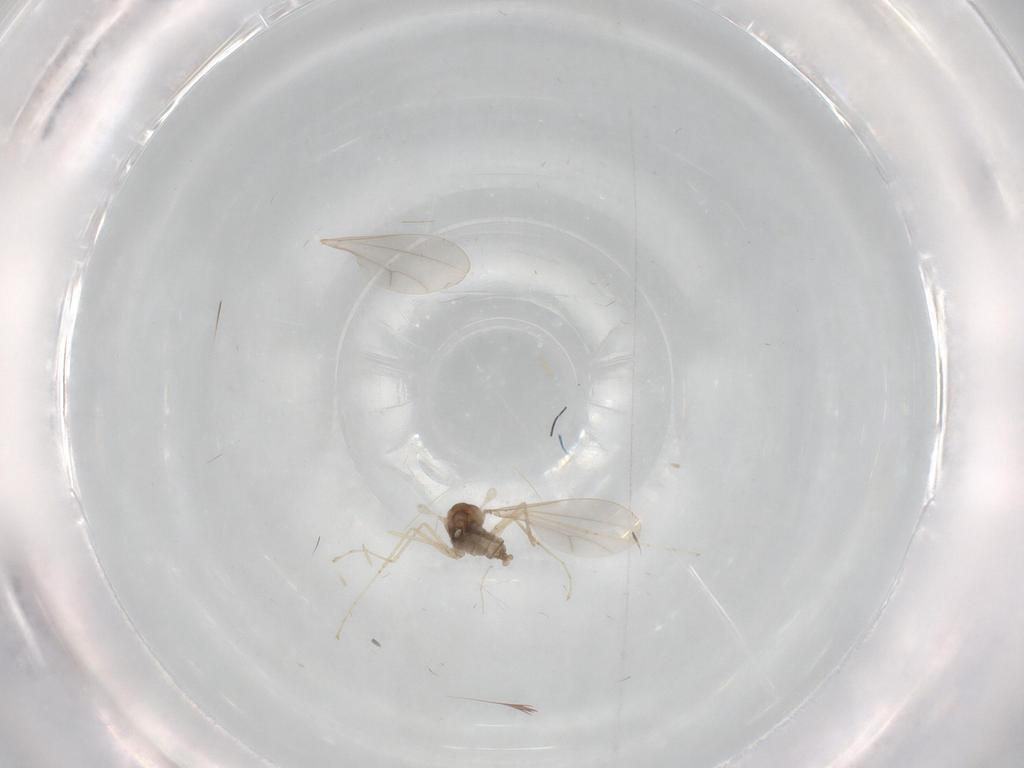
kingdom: Animalia
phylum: Arthropoda
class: Insecta
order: Diptera
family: Cecidomyiidae
